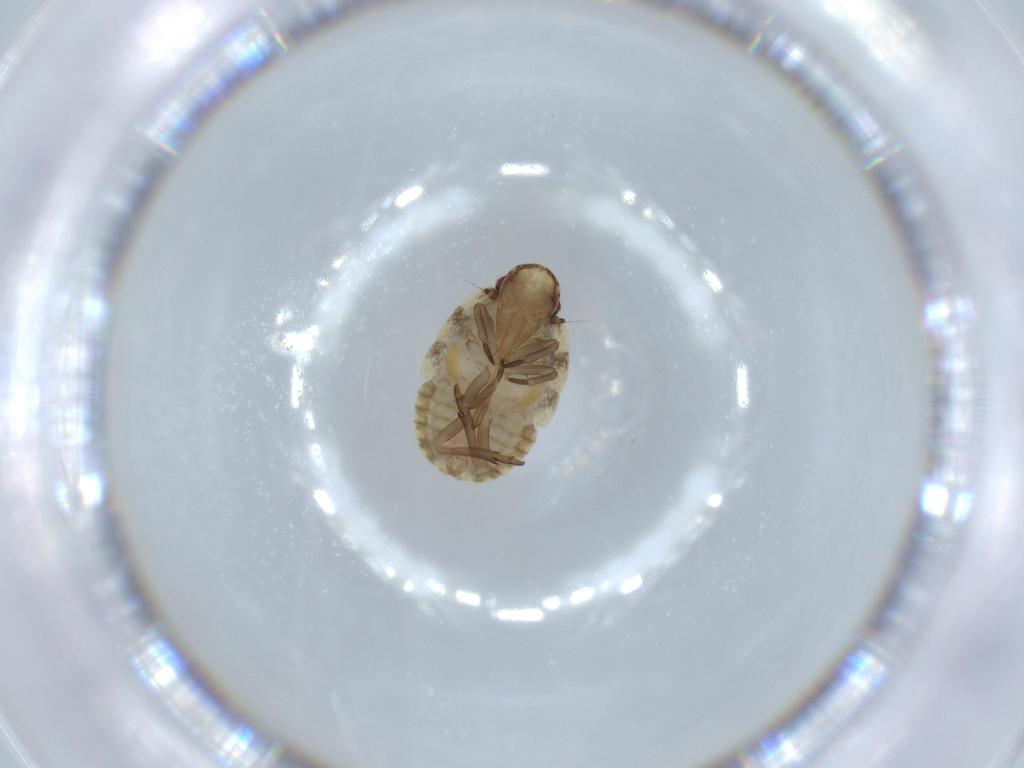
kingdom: Animalia
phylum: Arthropoda
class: Insecta
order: Hemiptera
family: Flatidae
